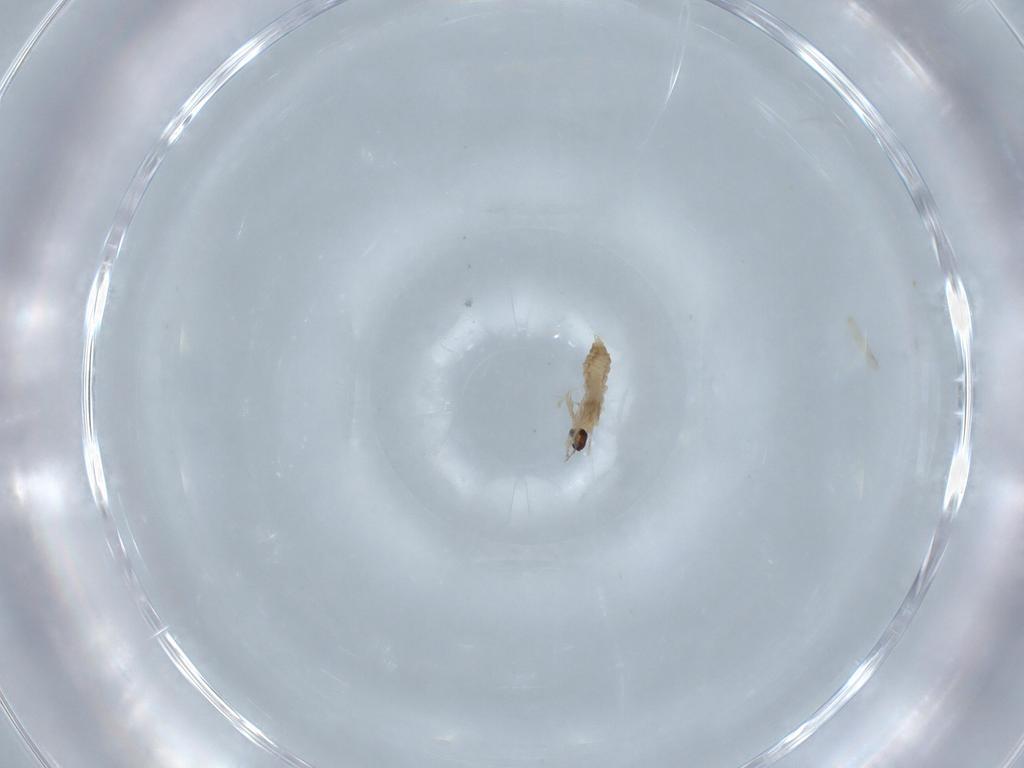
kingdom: Animalia
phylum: Arthropoda
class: Insecta
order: Diptera
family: Cecidomyiidae
